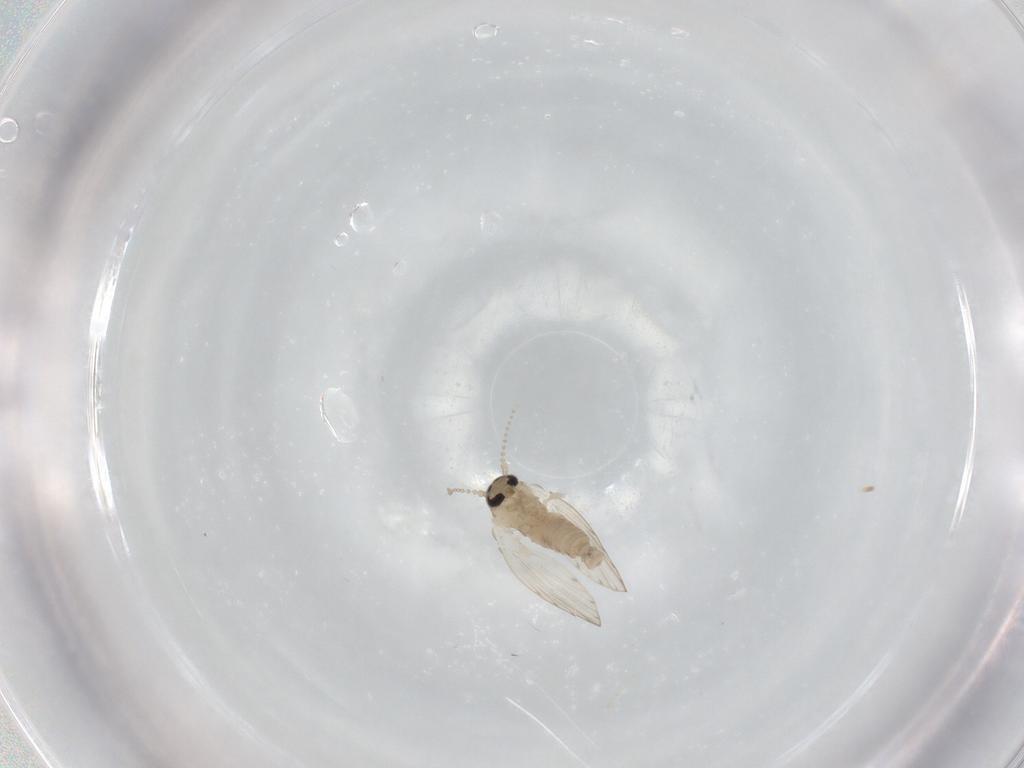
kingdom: Animalia
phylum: Arthropoda
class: Insecta
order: Diptera
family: Psychodidae
